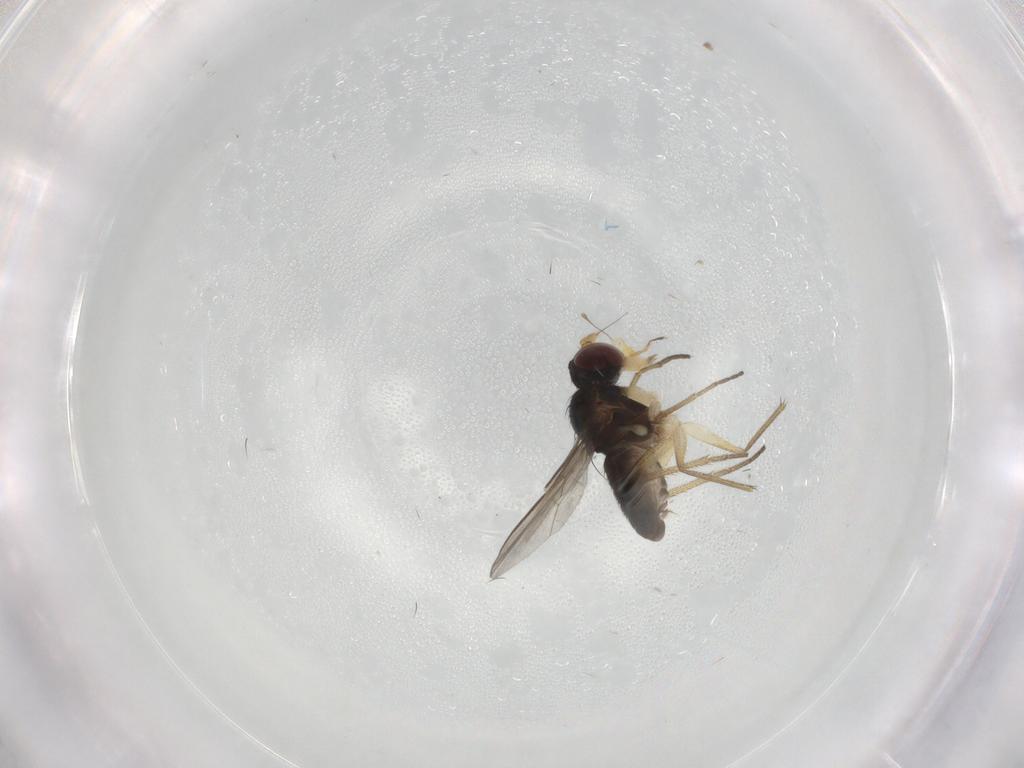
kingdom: Animalia
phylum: Arthropoda
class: Insecta
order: Diptera
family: Dolichopodidae
